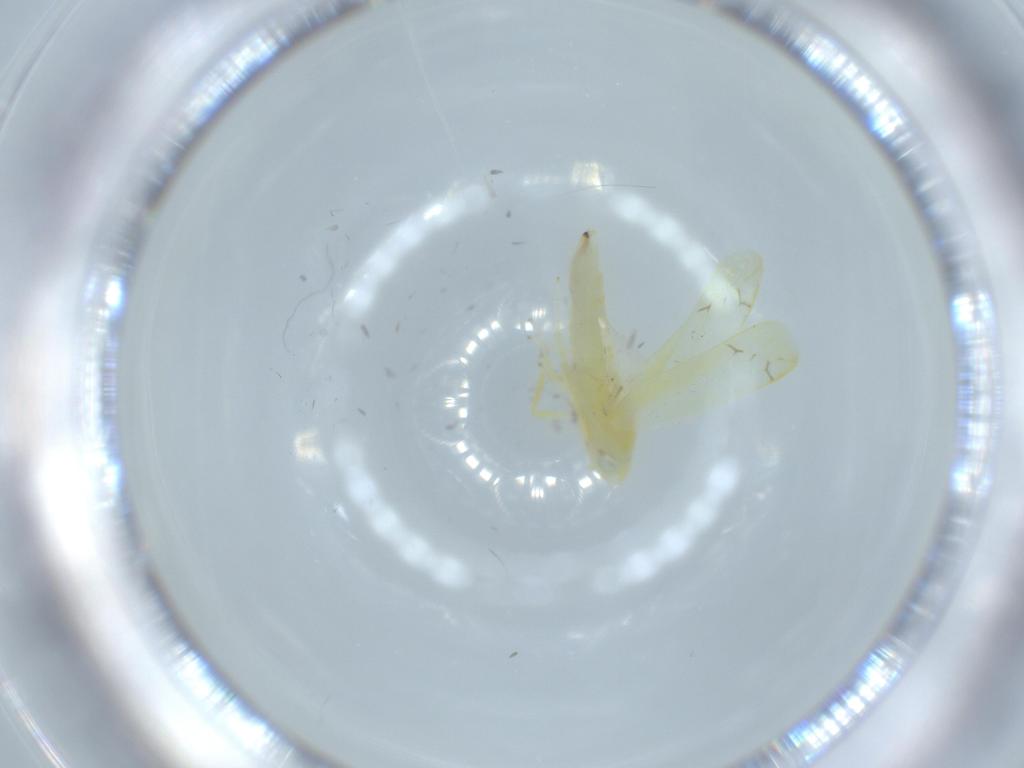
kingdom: Animalia
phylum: Arthropoda
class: Insecta
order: Hemiptera
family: Cicadellidae
